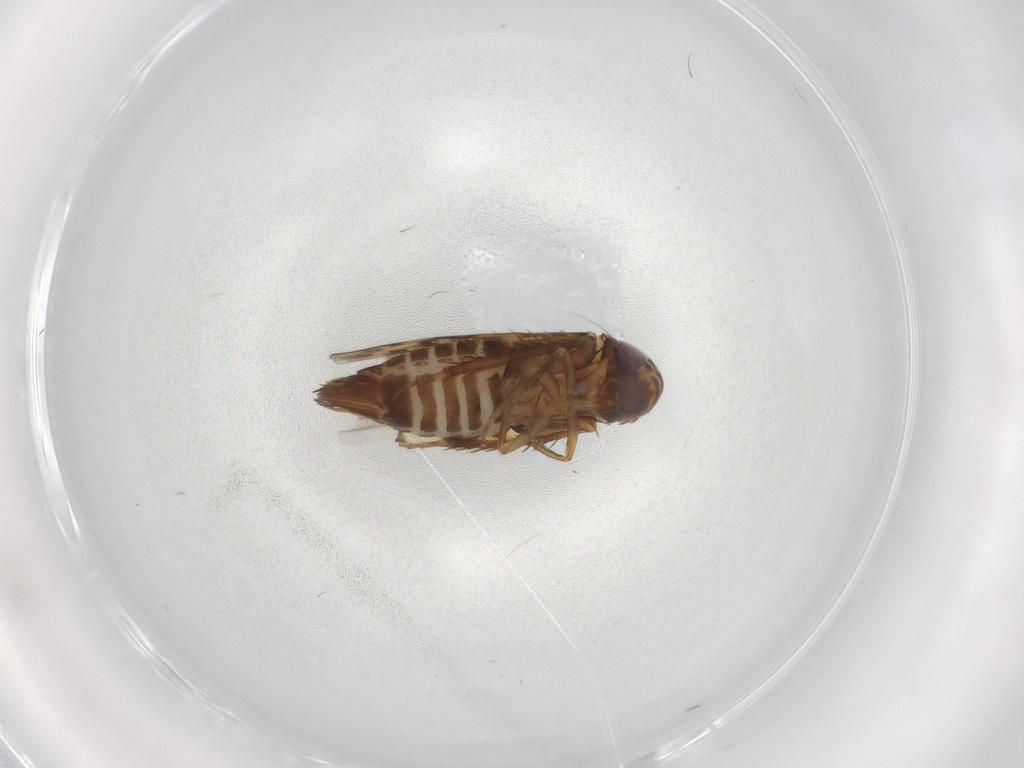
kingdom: Animalia
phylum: Arthropoda
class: Insecta
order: Hemiptera
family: Cicadellidae
